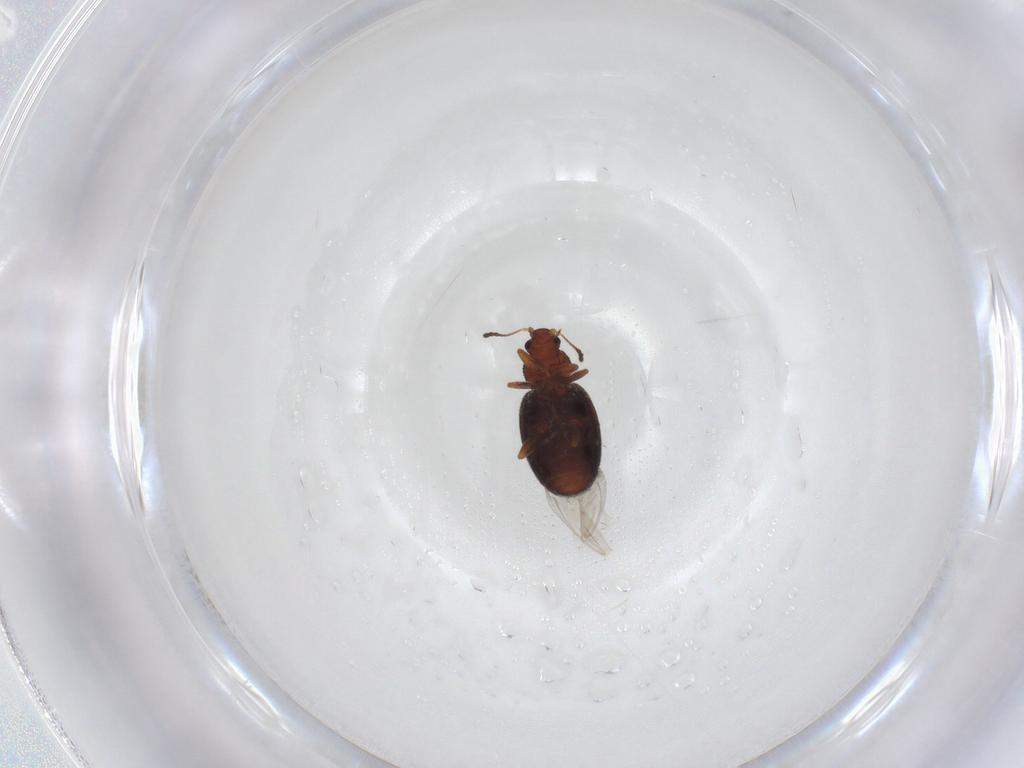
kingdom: Animalia
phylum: Arthropoda
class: Insecta
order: Coleoptera
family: Latridiidae
